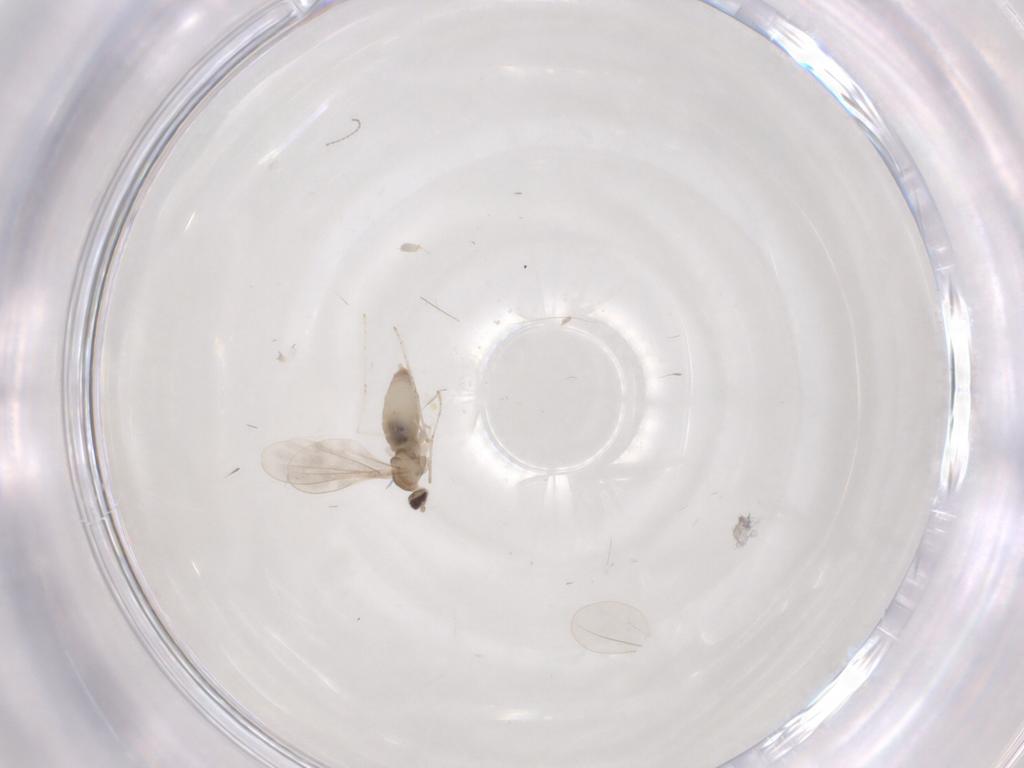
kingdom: Animalia
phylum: Arthropoda
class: Insecta
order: Diptera
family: Cecidomyiidae
